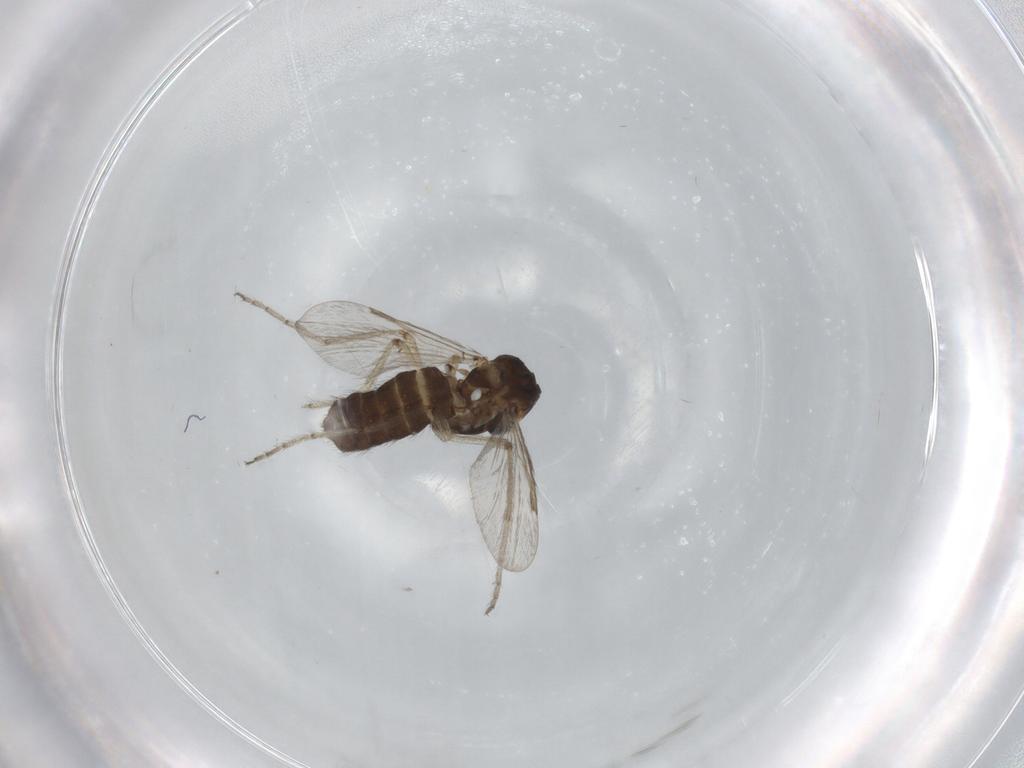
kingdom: Animalia
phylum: Arthropoda
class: Insecta
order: Diptera
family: Ceratopogonidae
